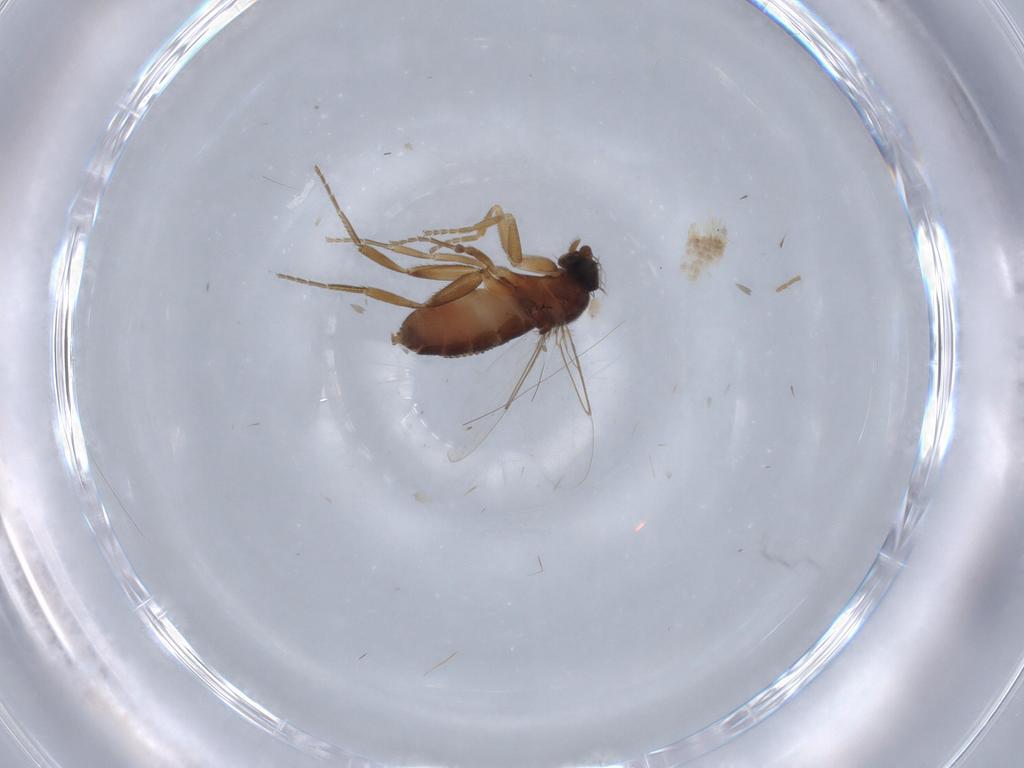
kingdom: Animalia
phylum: Arthropoda
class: Insecta
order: Diptera
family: Phoridae
